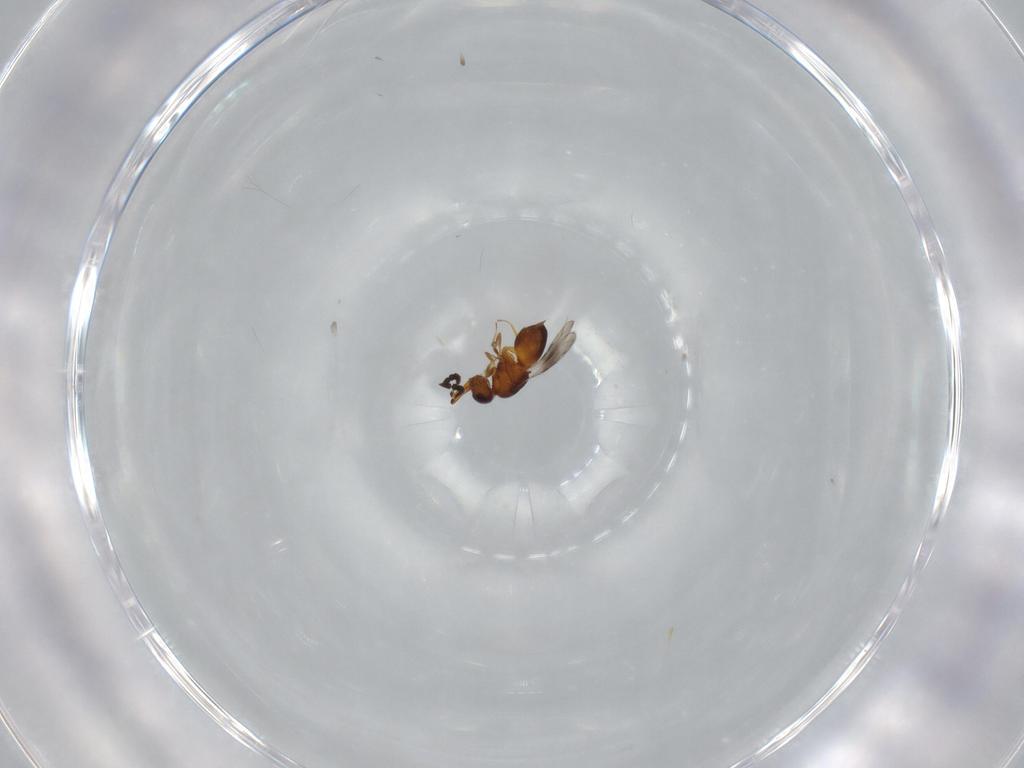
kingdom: Animalia
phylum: Arthropoda
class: Insecta
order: Hymenoptera
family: Ceraphronidae
